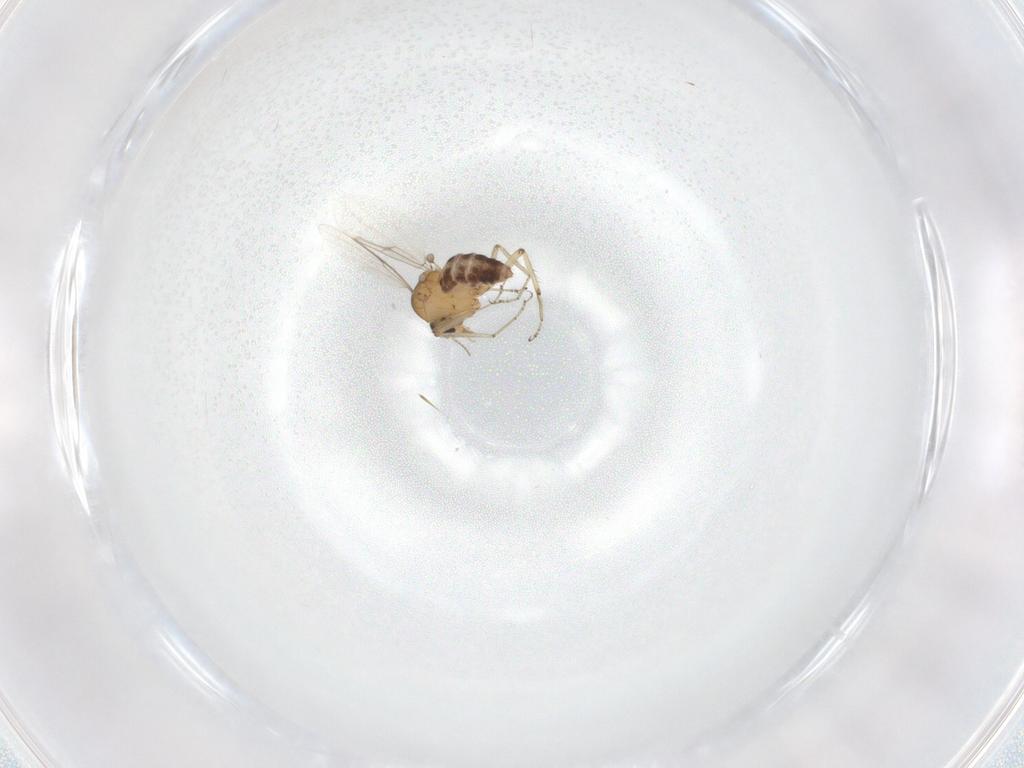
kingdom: Animalia
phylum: Arthropoda
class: Insecta
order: Diptera
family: Ceratopogonidae
